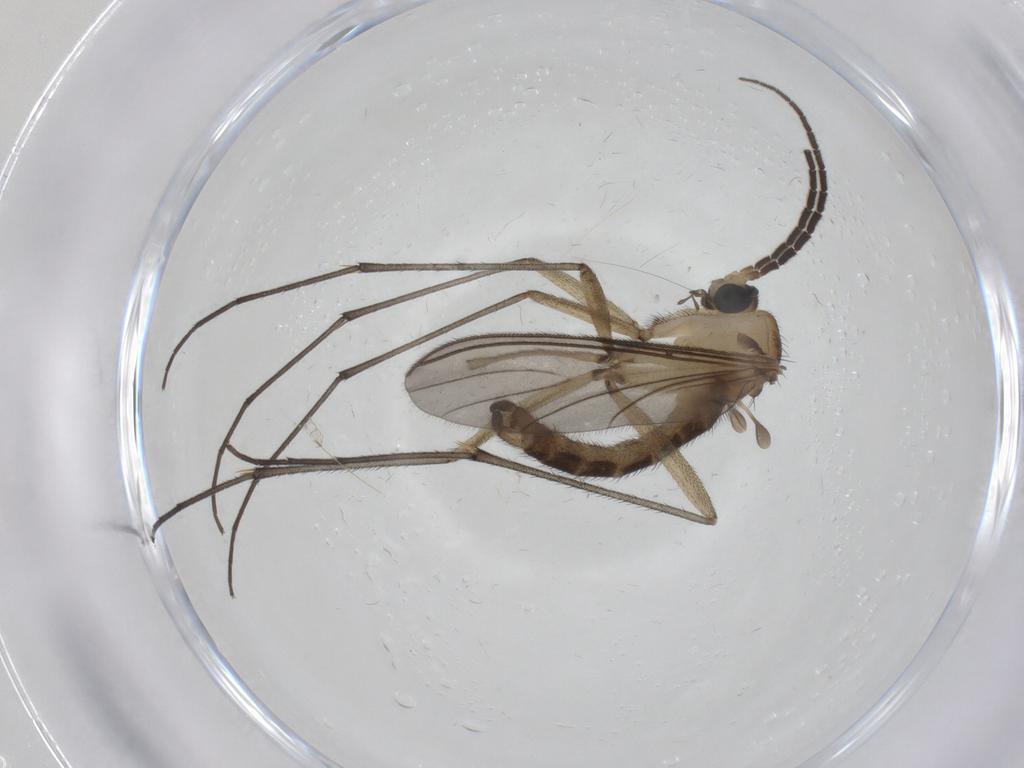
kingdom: Animalia
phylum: Arthropoda
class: Insecta
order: Diptera
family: Sciaridae
